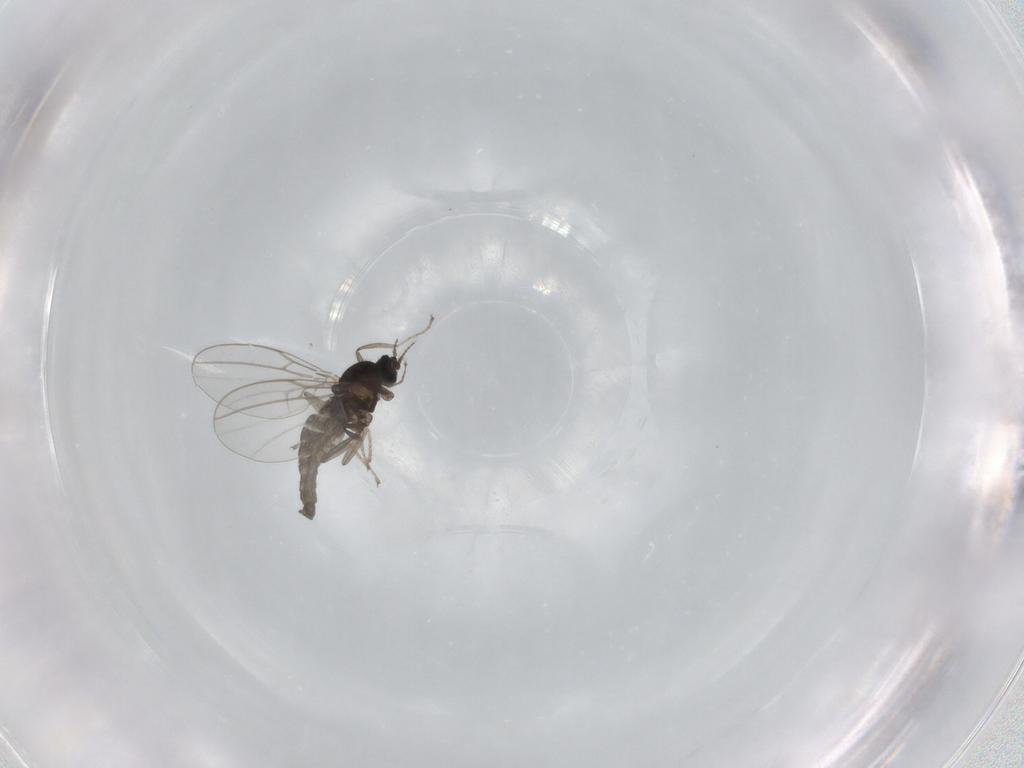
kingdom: Animalia
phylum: Arthropoda
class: Insecta
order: Diptera
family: Cecidomyiidae
